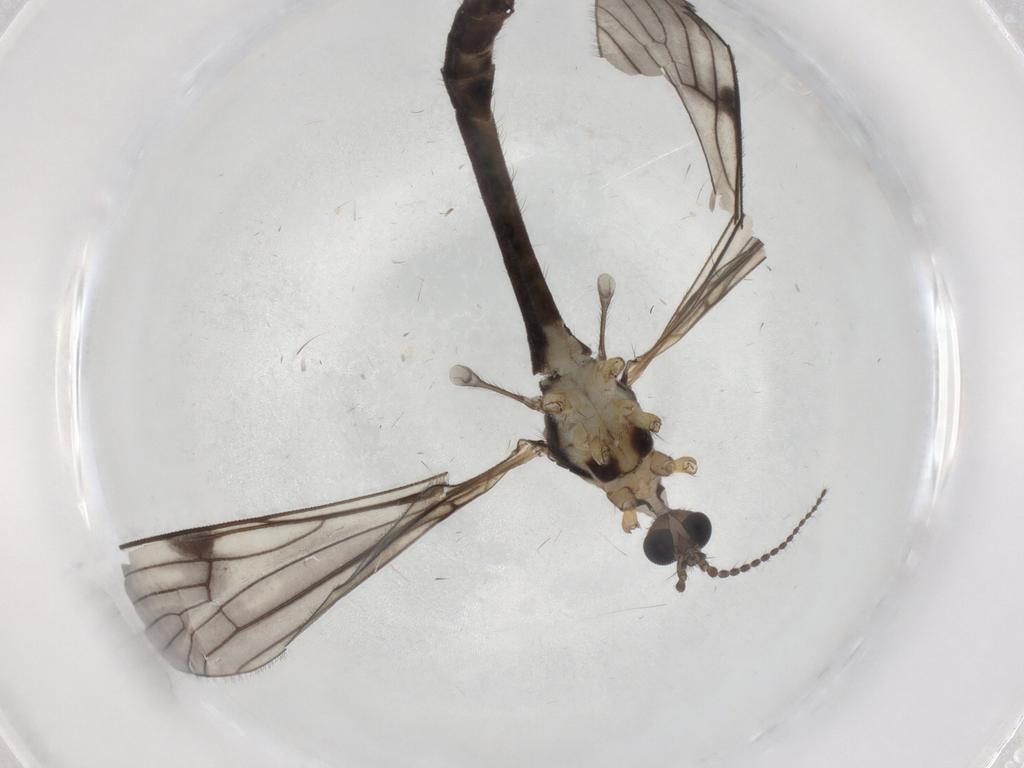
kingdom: Animalia
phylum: Arthropoda
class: Insecta
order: Diptera
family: Limoniidae
